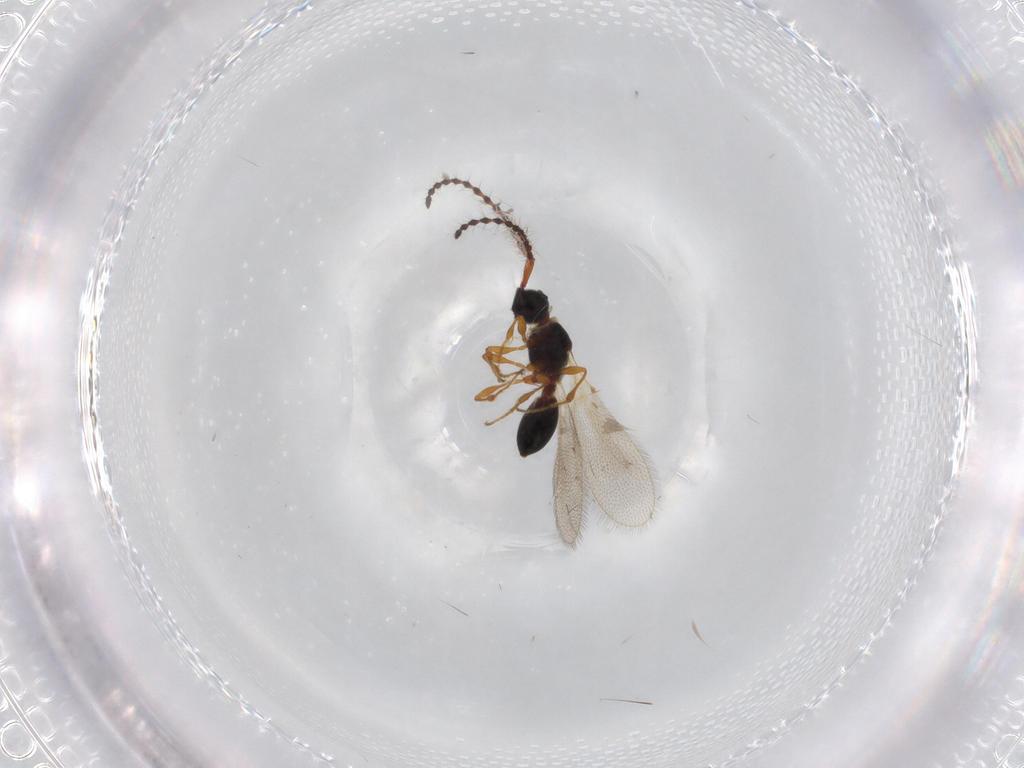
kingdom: Animalia
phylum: Arthropoda
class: Insecta
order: Hymenoptera
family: Diapriidae
